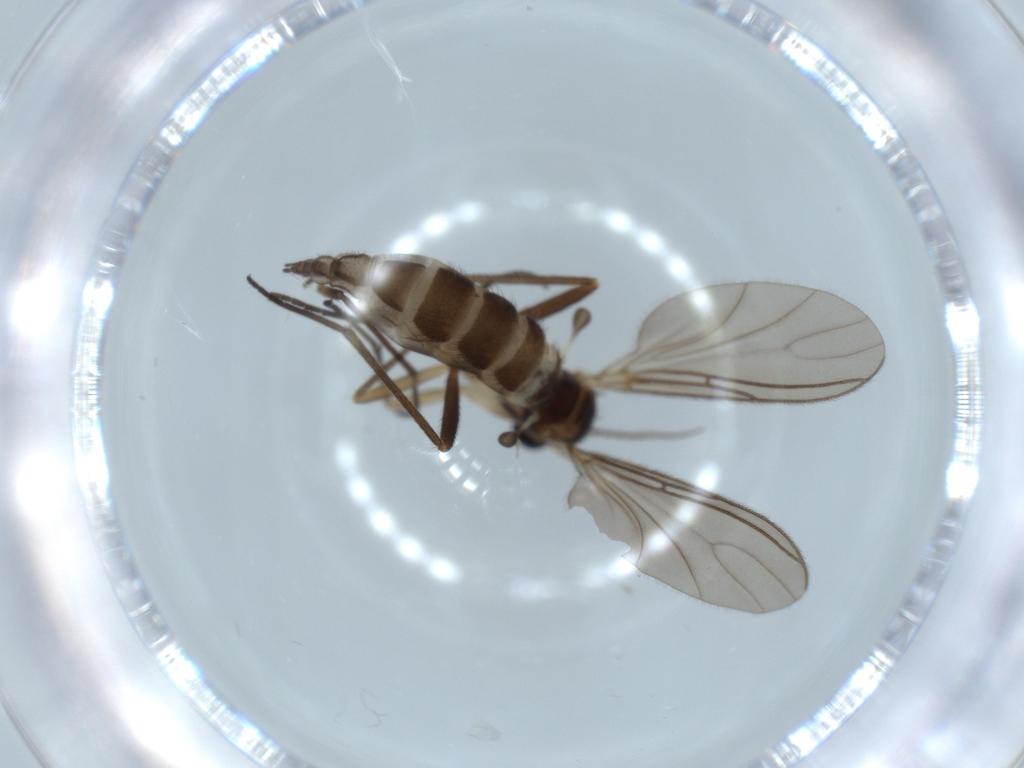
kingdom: Animalia
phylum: Arthropoda
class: Insecta
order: Diptera
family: Sciaridae
